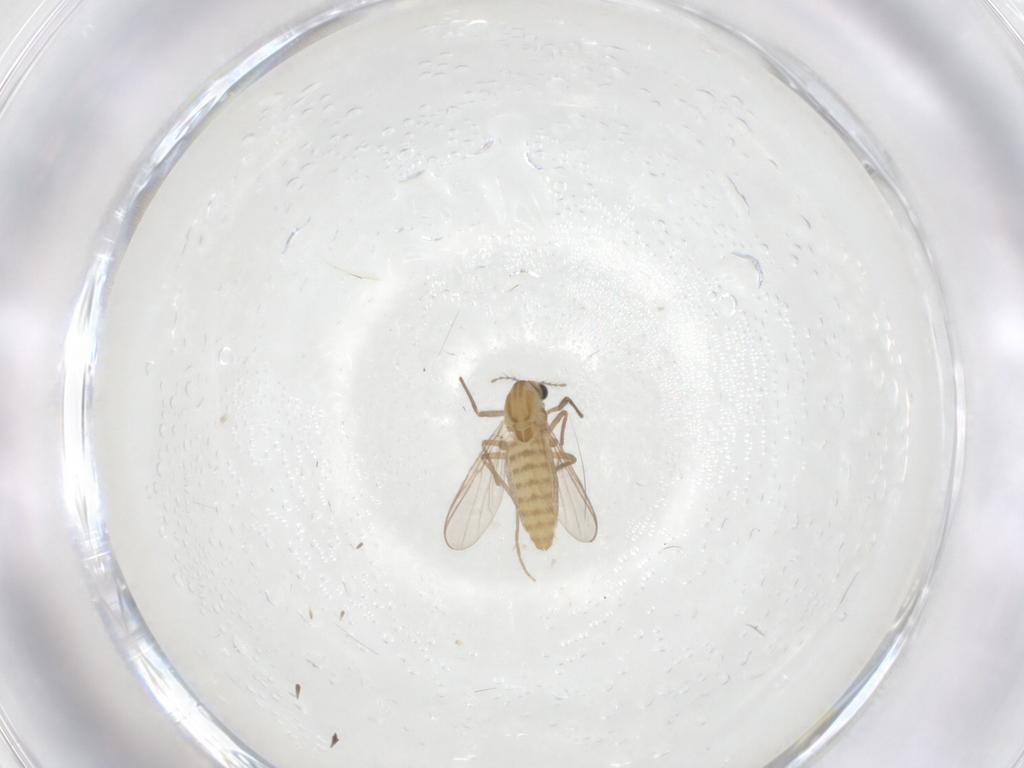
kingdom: Animalia
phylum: Arthropoda
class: Insecta
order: Diptera
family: Chironomidae
